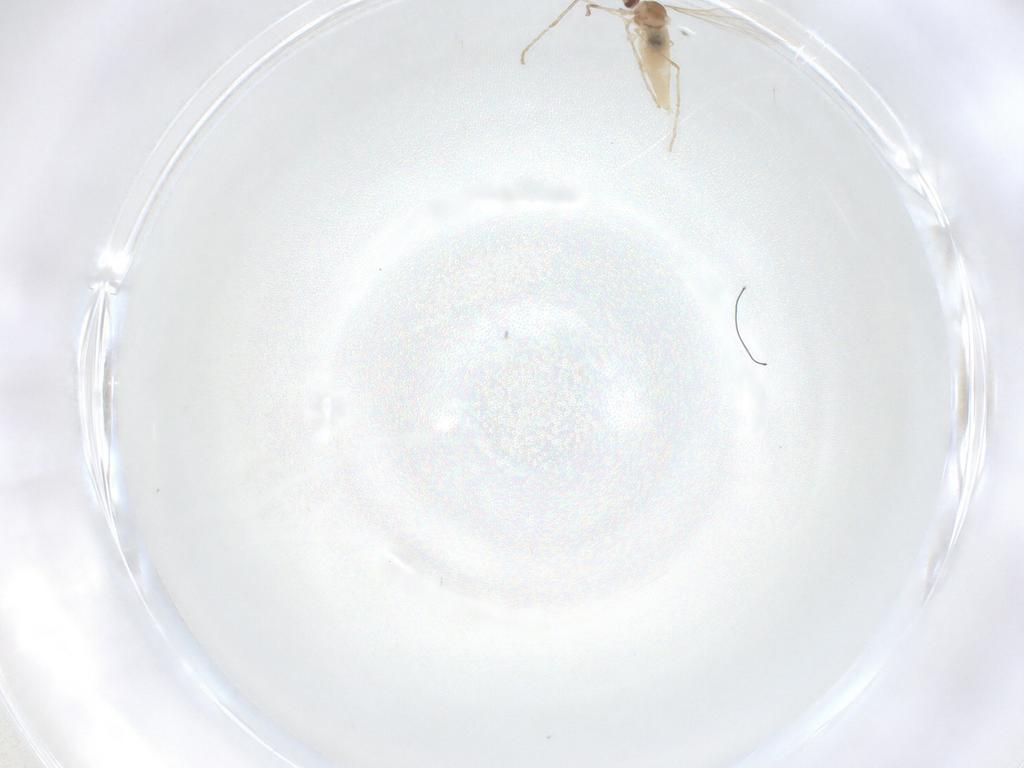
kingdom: Animalia
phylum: Arthropoda
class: Insecta
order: Diptera
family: Cecidomyiidae
